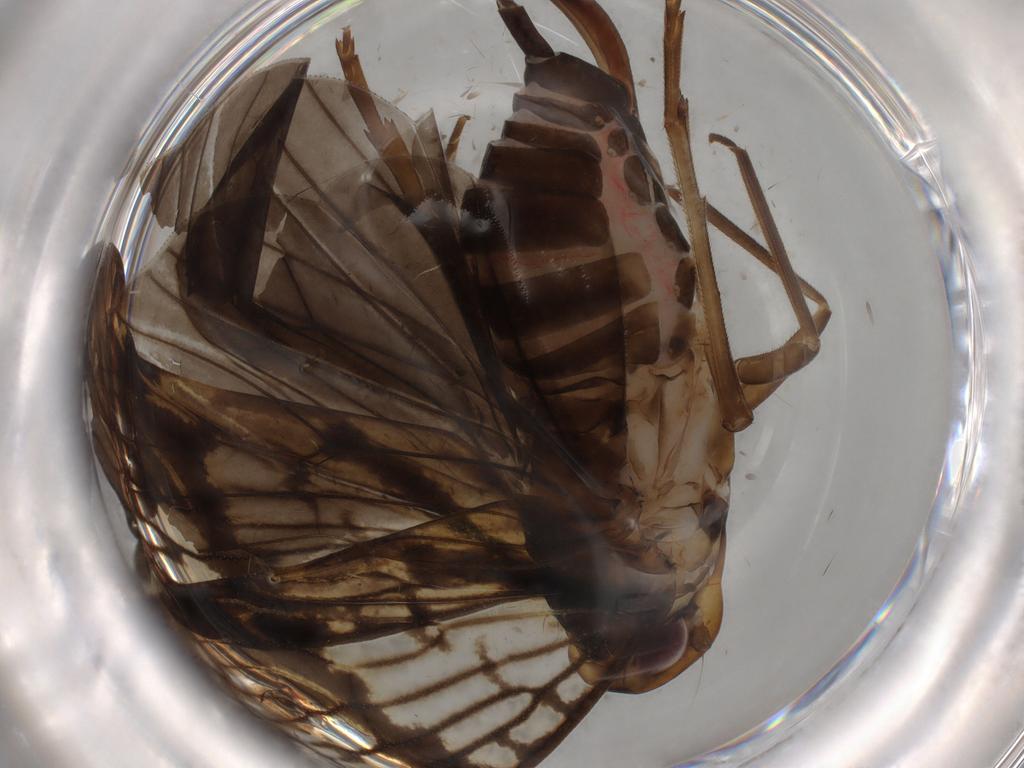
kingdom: Animalia
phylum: Arthropoda
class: Insecta
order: Hemiptera
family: Cixiidae
